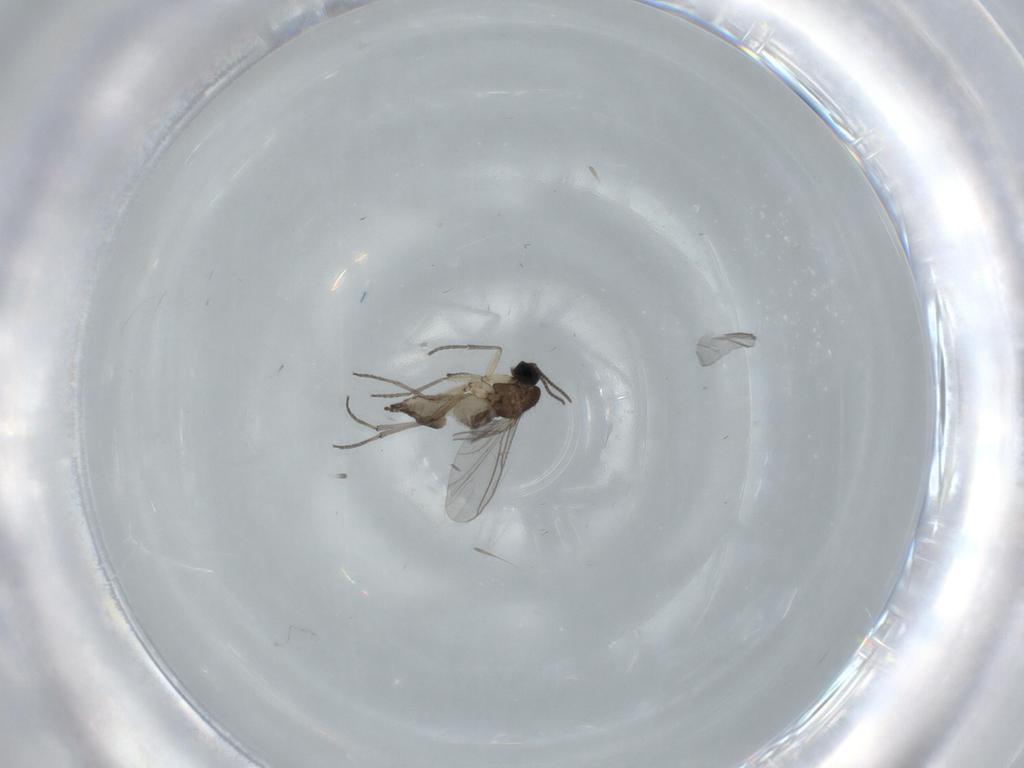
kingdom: Animalia
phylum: Arthropoda
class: Insecta
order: Diptera
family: Sciaridae
